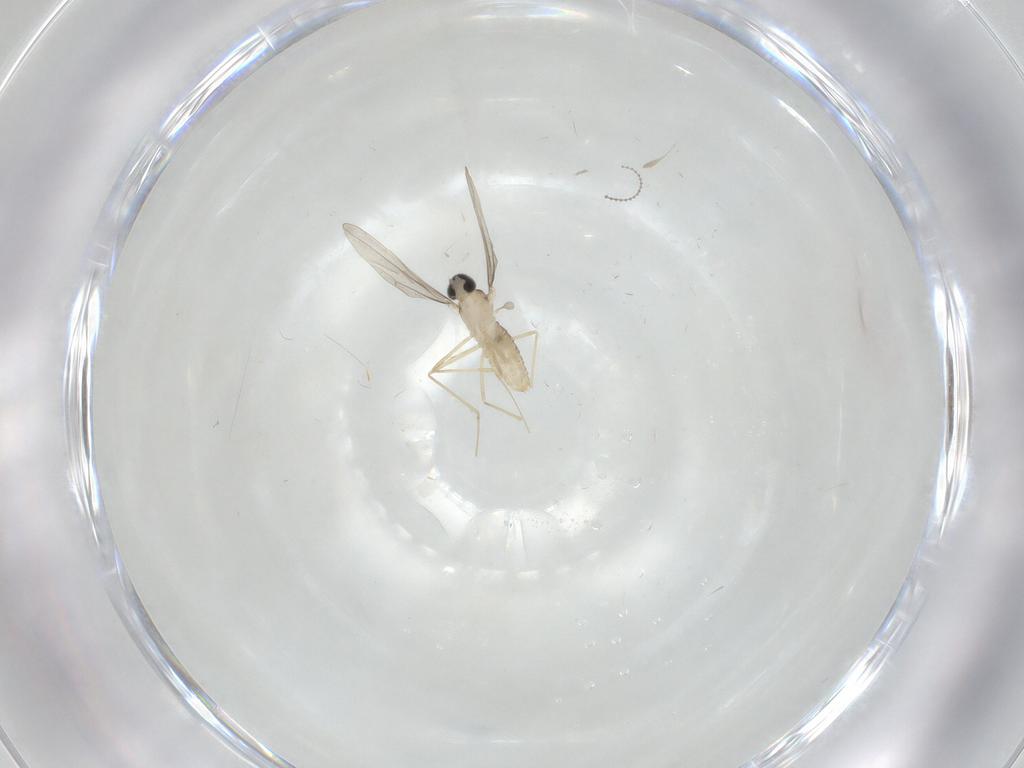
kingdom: Animalia
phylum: Arthropoda
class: Insecta
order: Diptera
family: Cecidomyiidae
